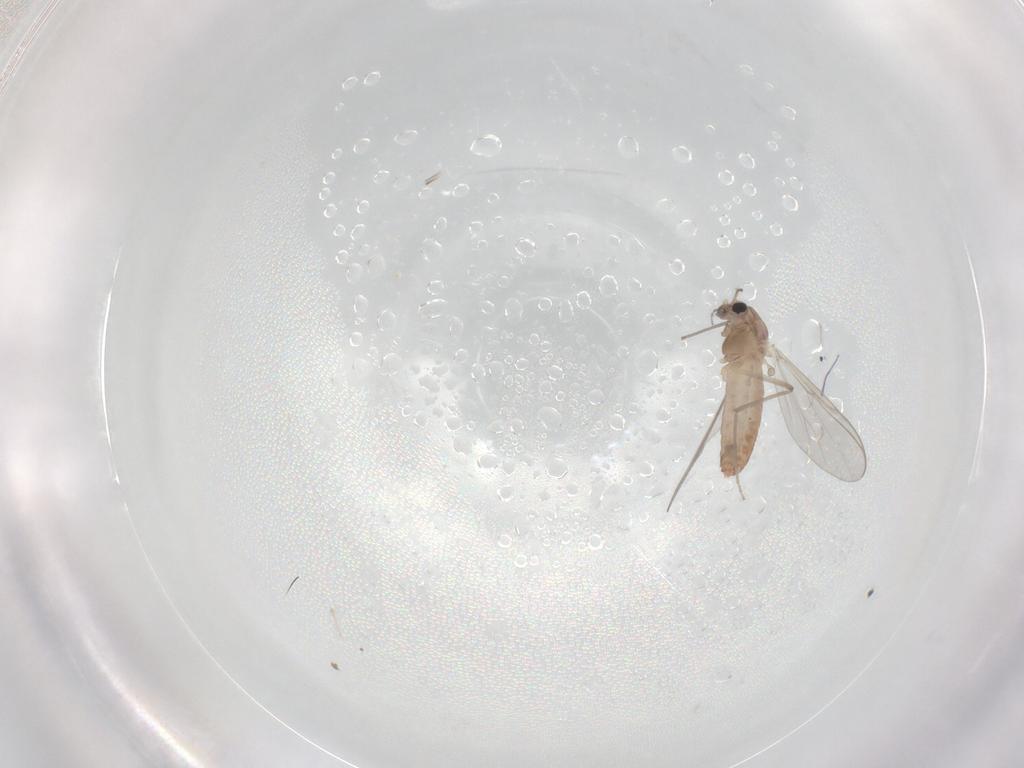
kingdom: Animalia
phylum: Arthropoda
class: Insecta
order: Diptera
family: Chironomidae
